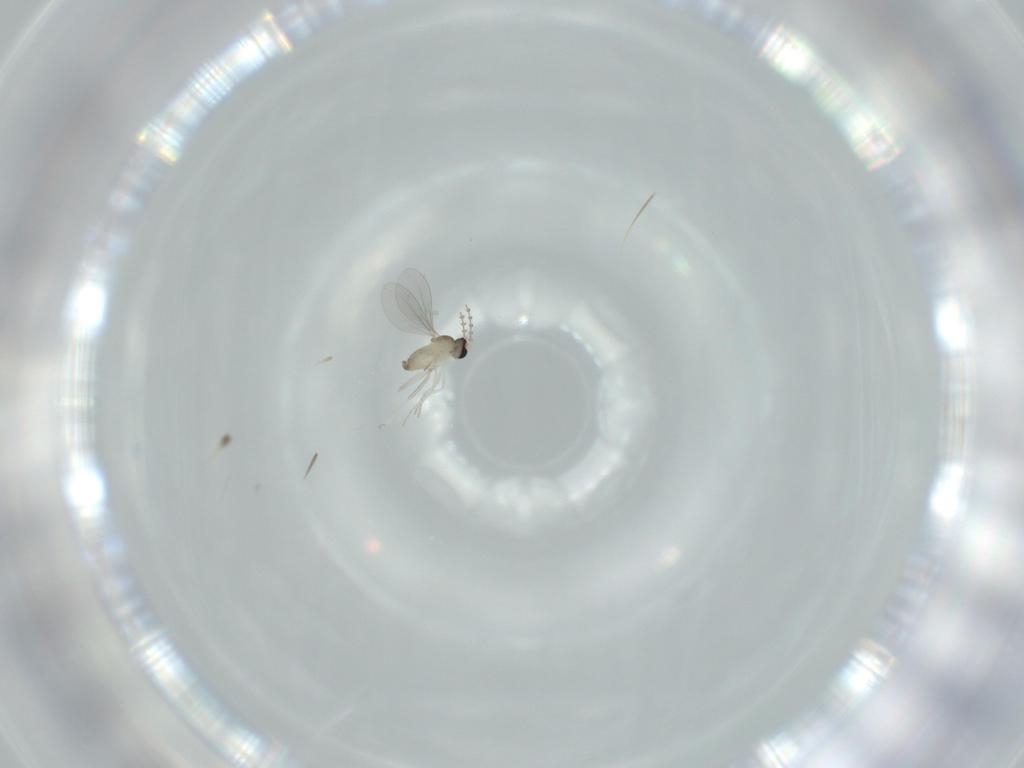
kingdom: Animalia
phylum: Arthropoda
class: Insecta
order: Diptera
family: Cecidomyiidae
